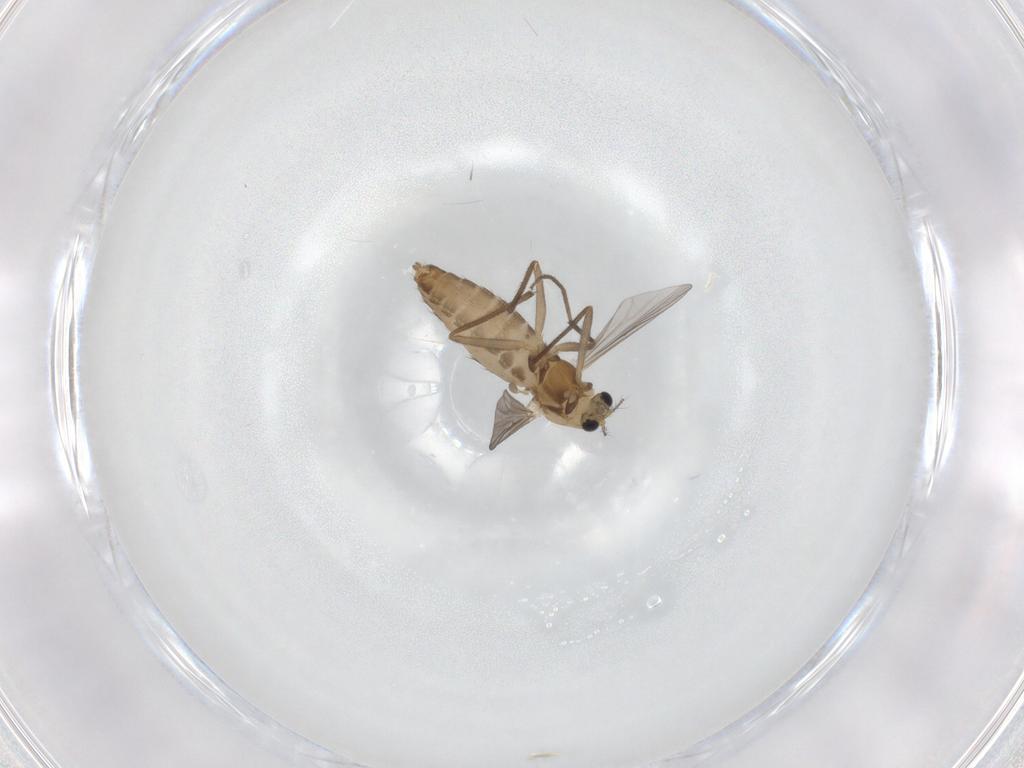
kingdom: Animalia
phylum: Arthropoda
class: Insecta
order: Diptera
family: Chironomidae
